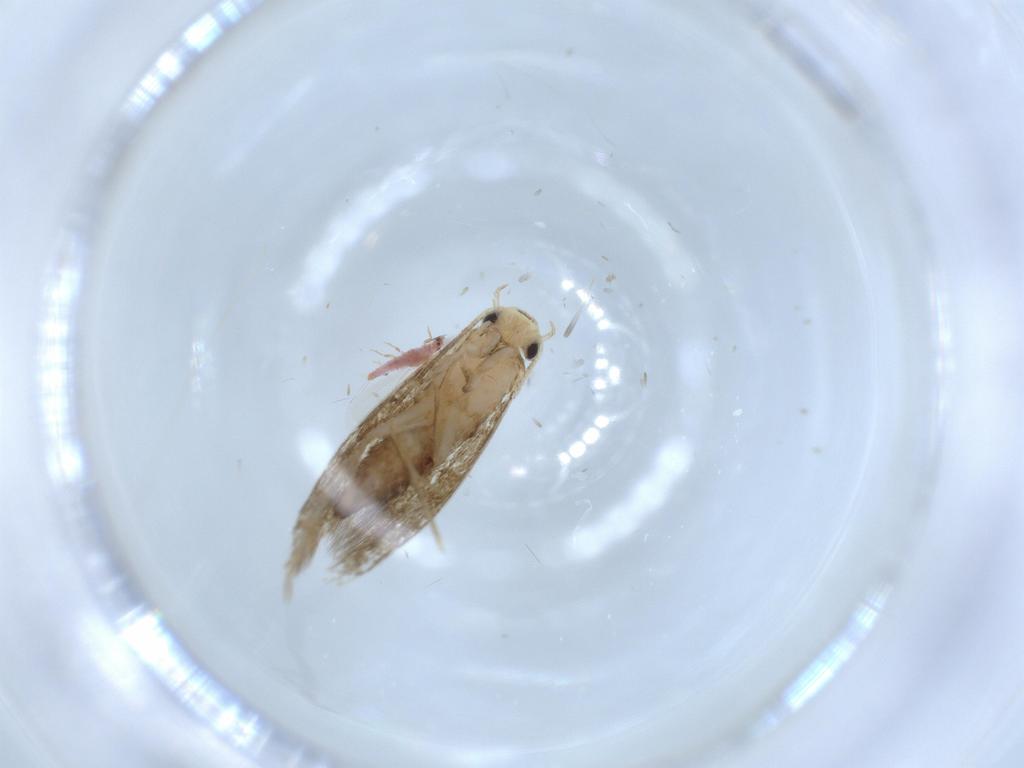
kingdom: Animalia
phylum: Arthropoda
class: Insecta
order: Lepidoptera
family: Tineidae
